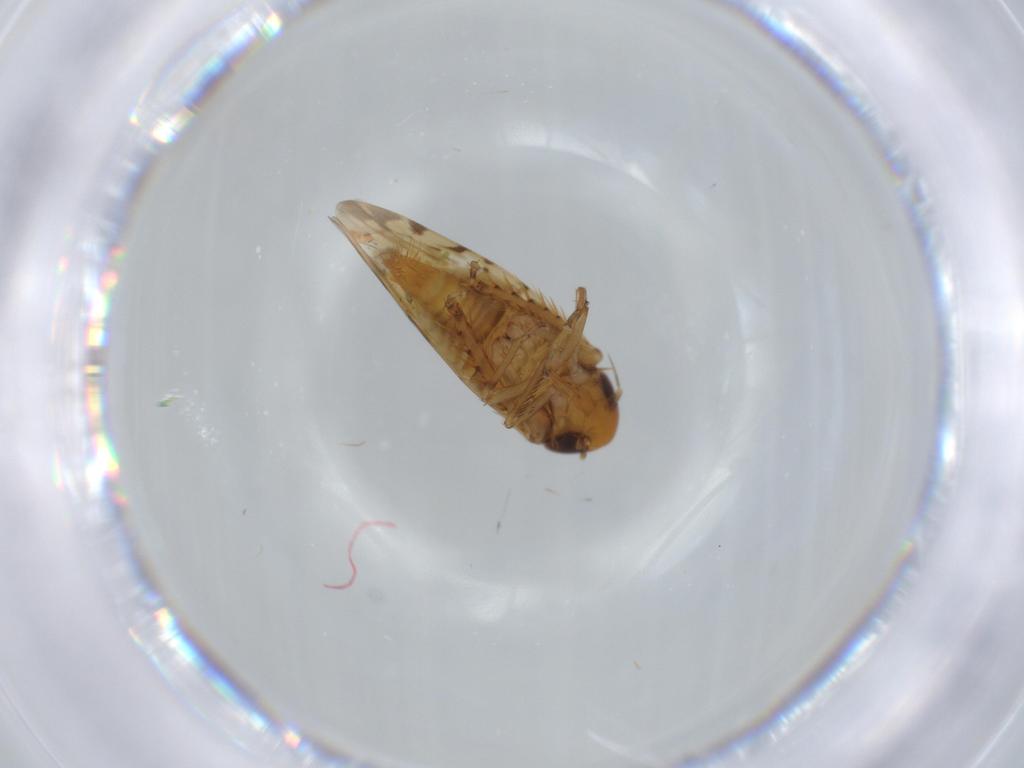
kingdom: Animalia
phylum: Arthropoda
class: Insecta
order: Hemiptera
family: Cicadellidae
